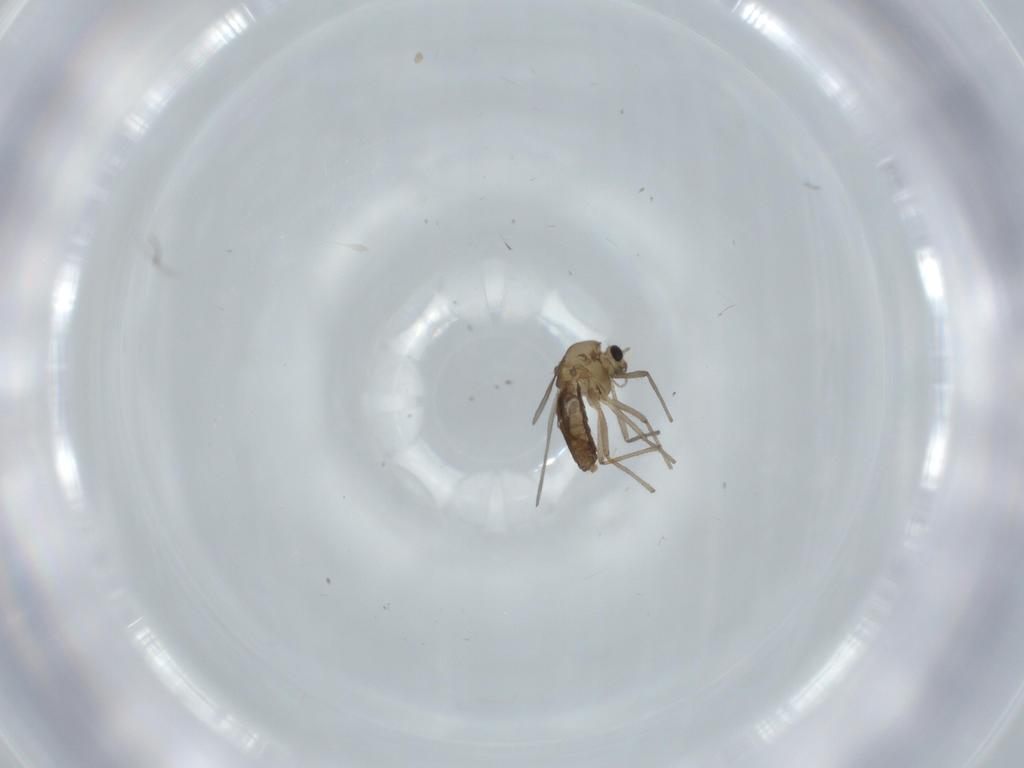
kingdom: Animalia
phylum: Arthropoda
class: Insecta
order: Diptera
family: Chironomidae
